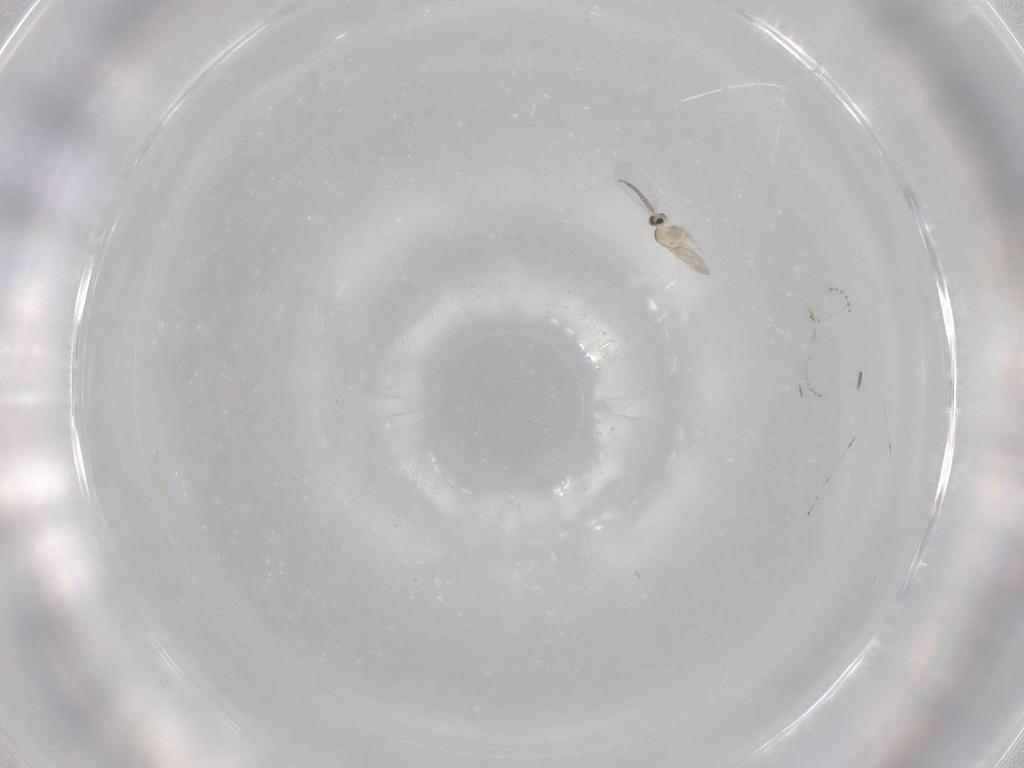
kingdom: Animalia
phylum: Arthropoda
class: Insecta
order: Diptera
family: Cecidomyiidae
